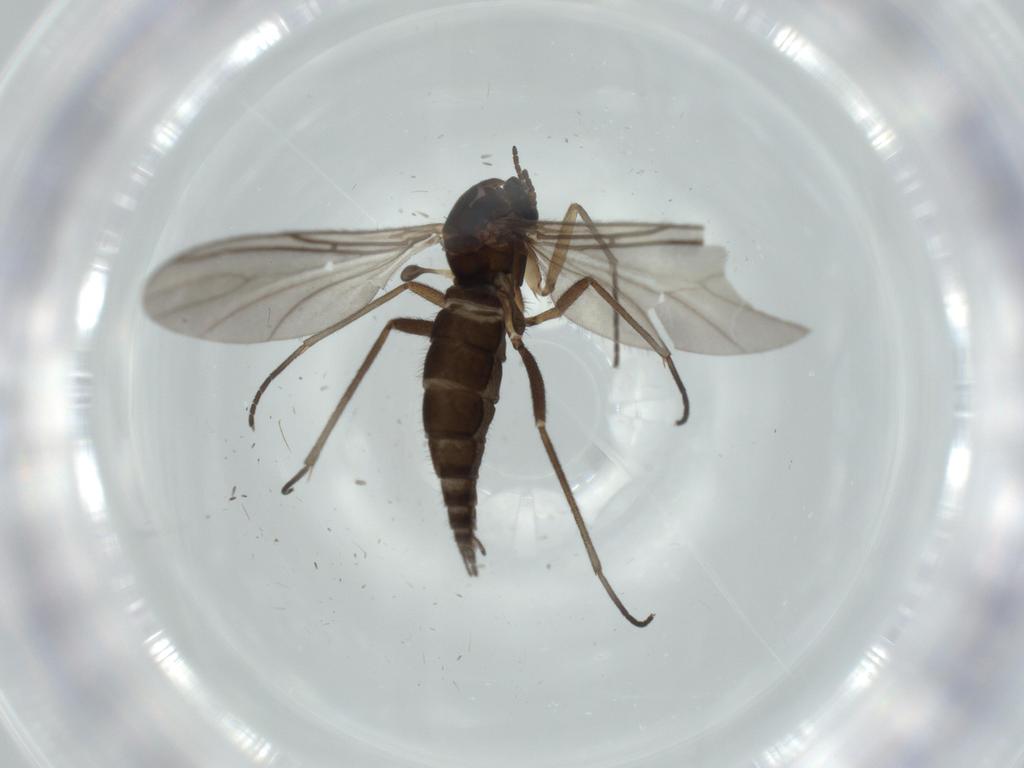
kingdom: Animalia
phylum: Arthropoda
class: Insecta
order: Diptera
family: Sciaridae
